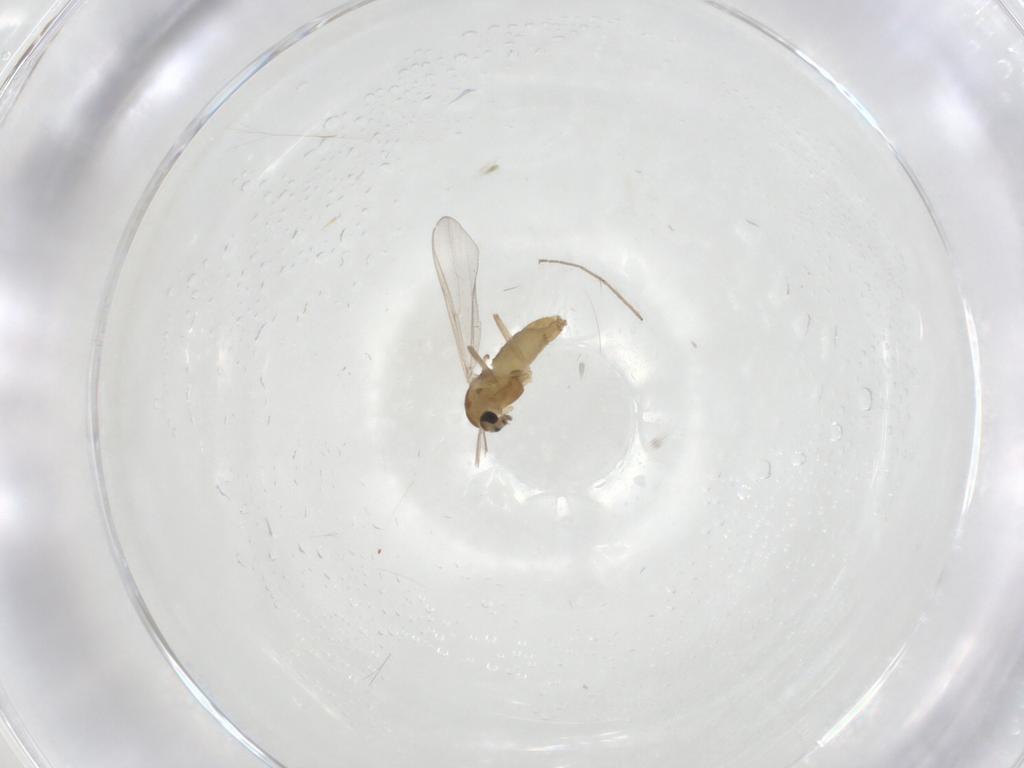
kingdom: Animalia
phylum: Arthropoda
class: Insecta
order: Diptera
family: Chironomidae
